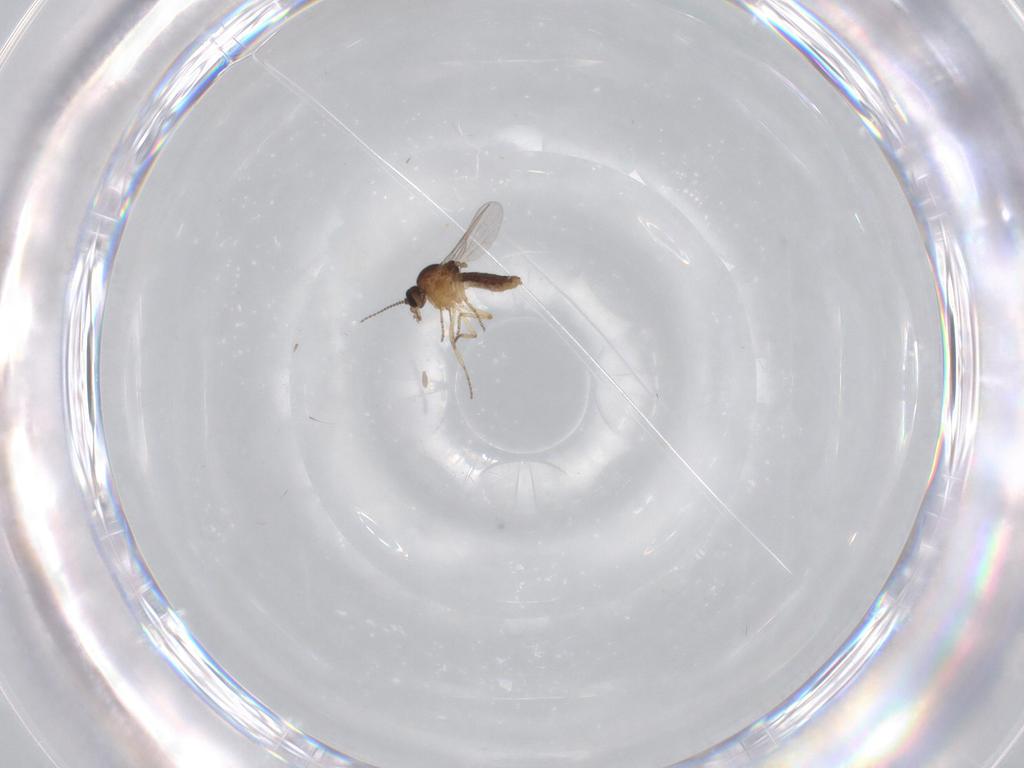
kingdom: Animalia
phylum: Arthropoda
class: Insecta
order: Diptera
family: Ceratopogonidae
